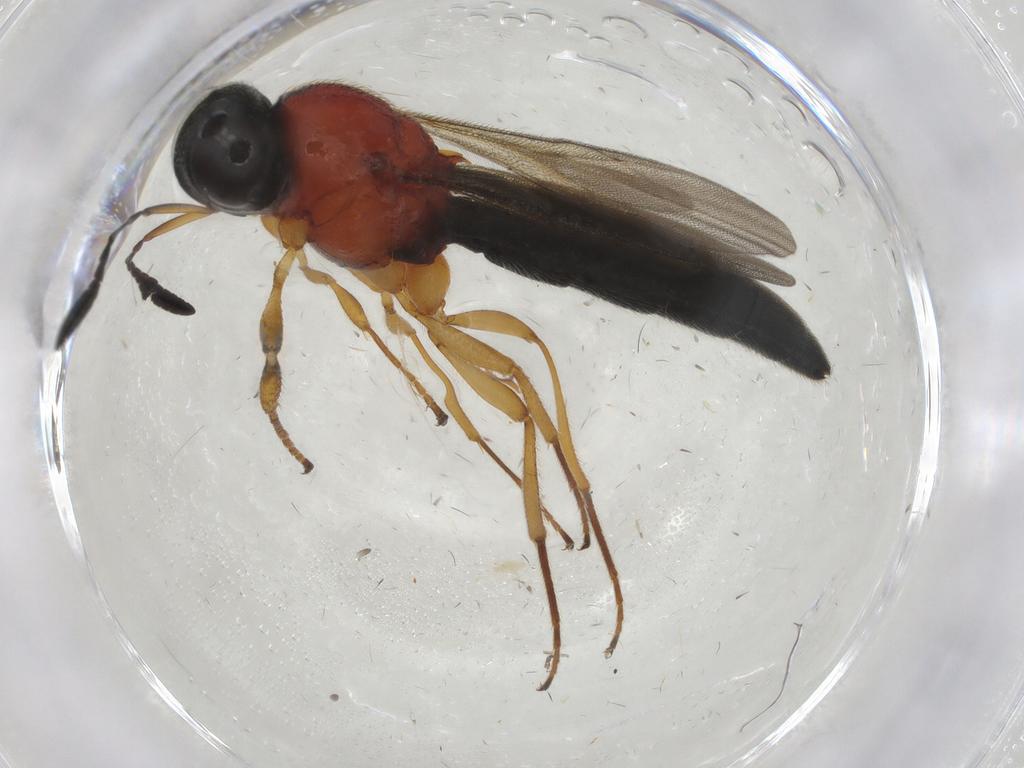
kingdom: Animalia
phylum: Arthropoda
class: Insecta
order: Hymenoptera
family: Scelionidae
